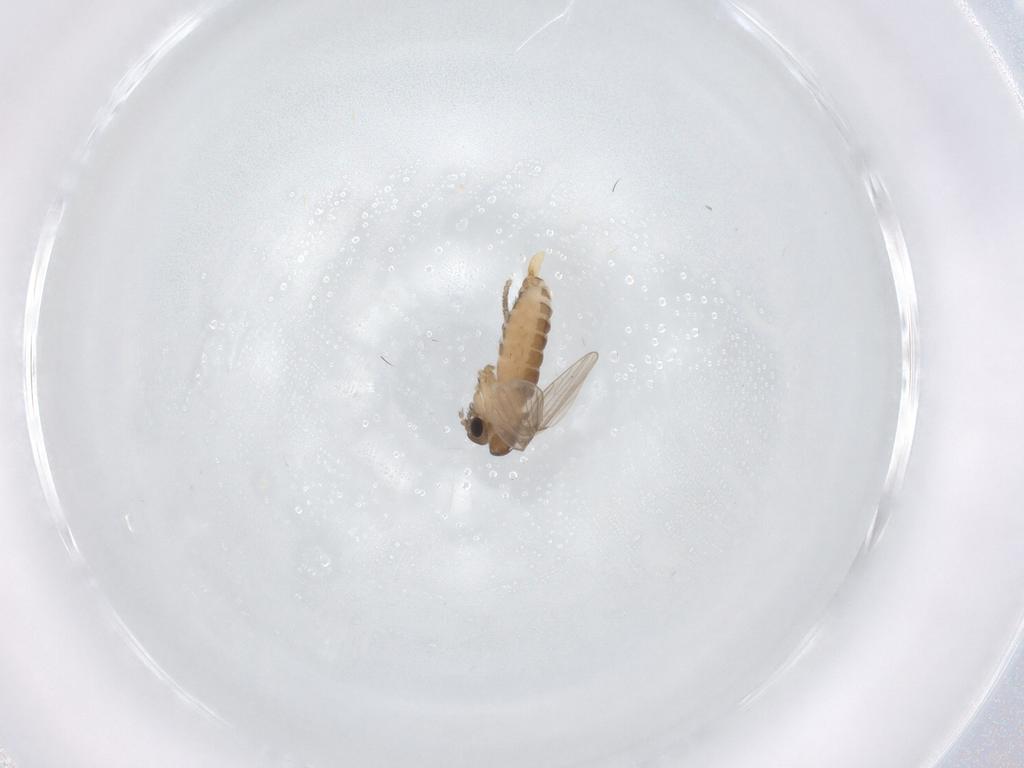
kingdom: Animalia
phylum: Arthropoda
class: Insecta
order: Diptera
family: Psychodidae
